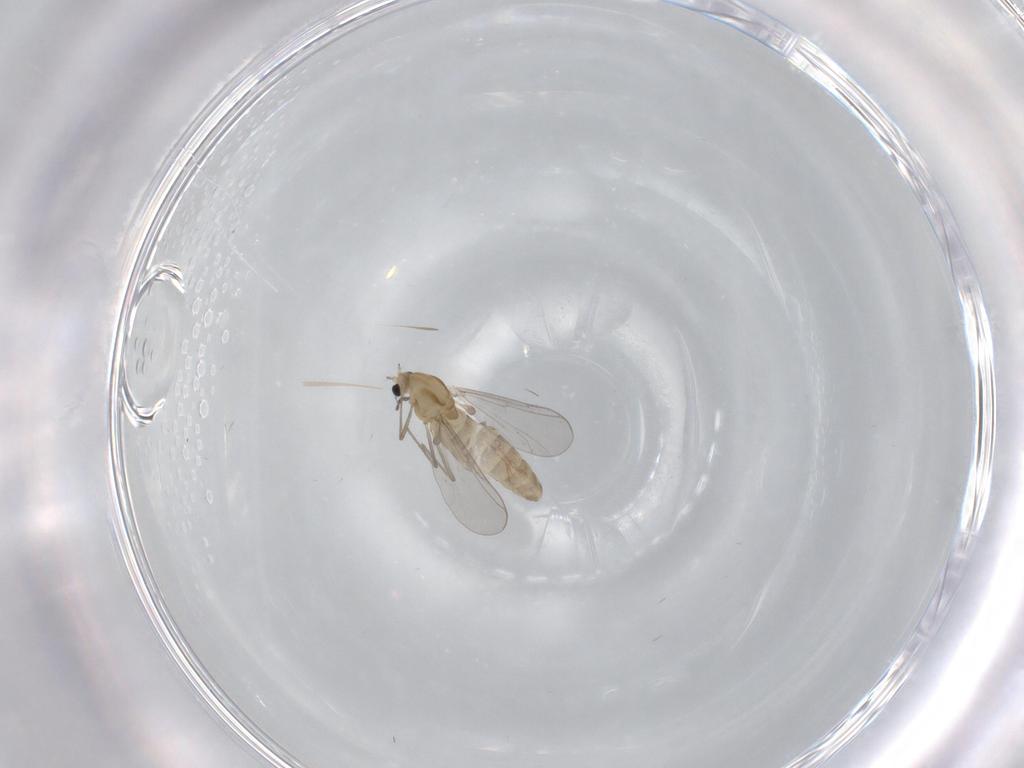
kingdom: Animalia
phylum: Arthropoda
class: Insecta
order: Diptera
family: Chironomidae
